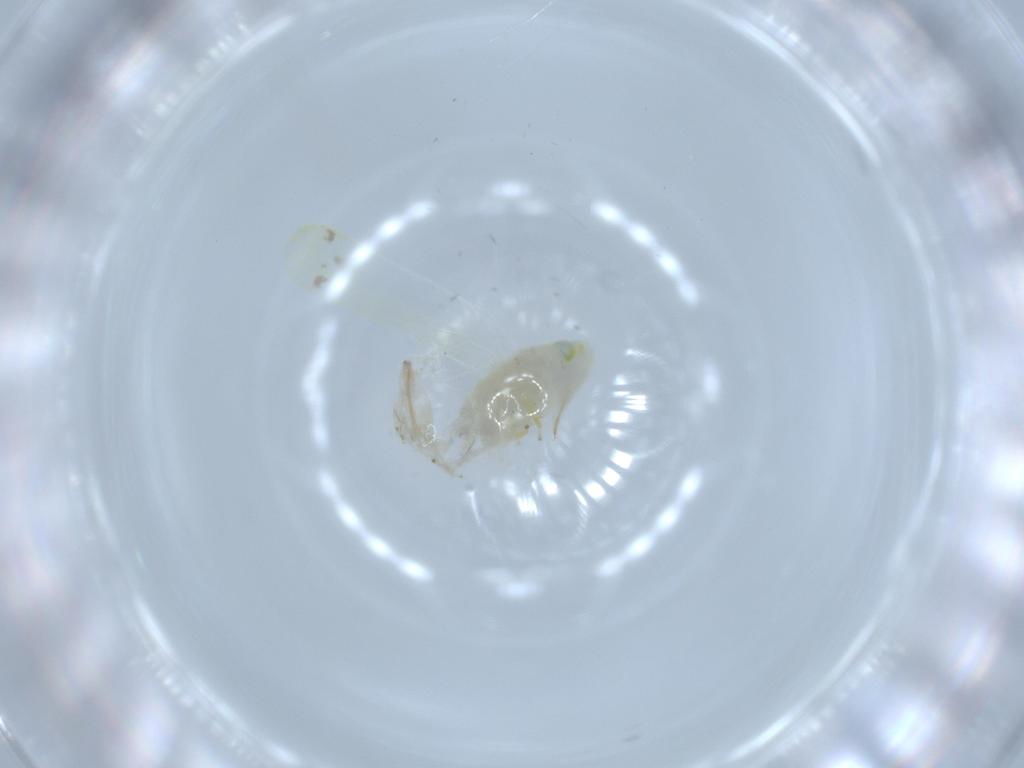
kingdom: Animalia
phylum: Arthropoda
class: Insecta
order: Hemiptera
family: Cicadellidae
